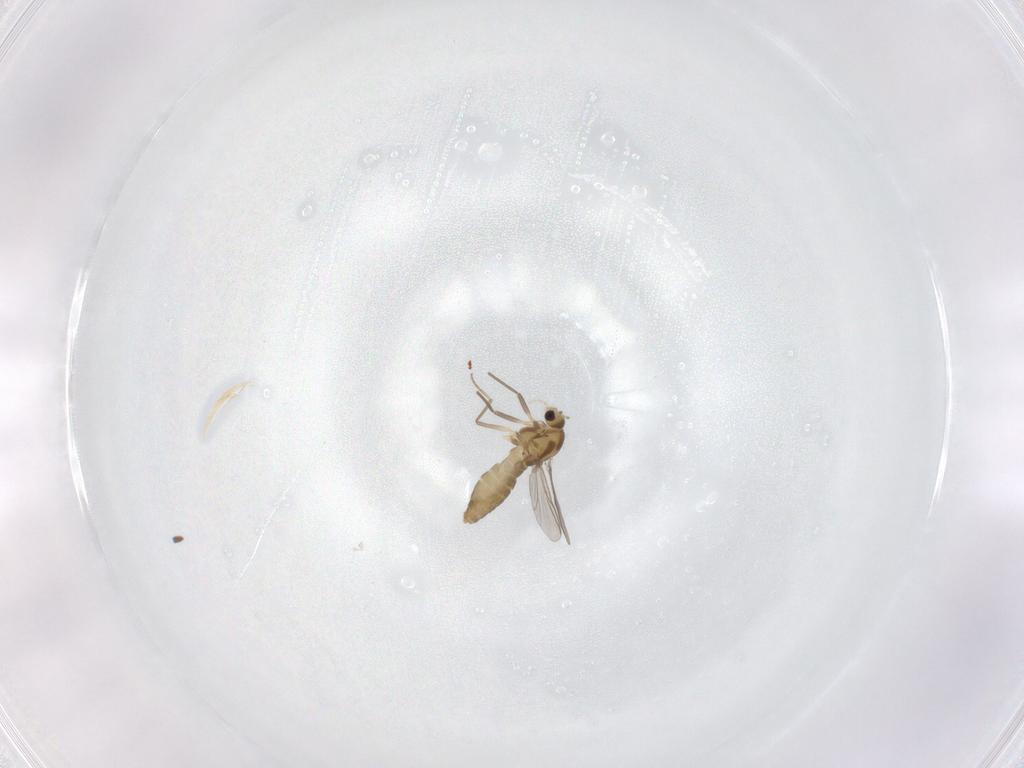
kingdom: Animalia
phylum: Arthropoda
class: Insecta
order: Diptera
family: Chironomidae
